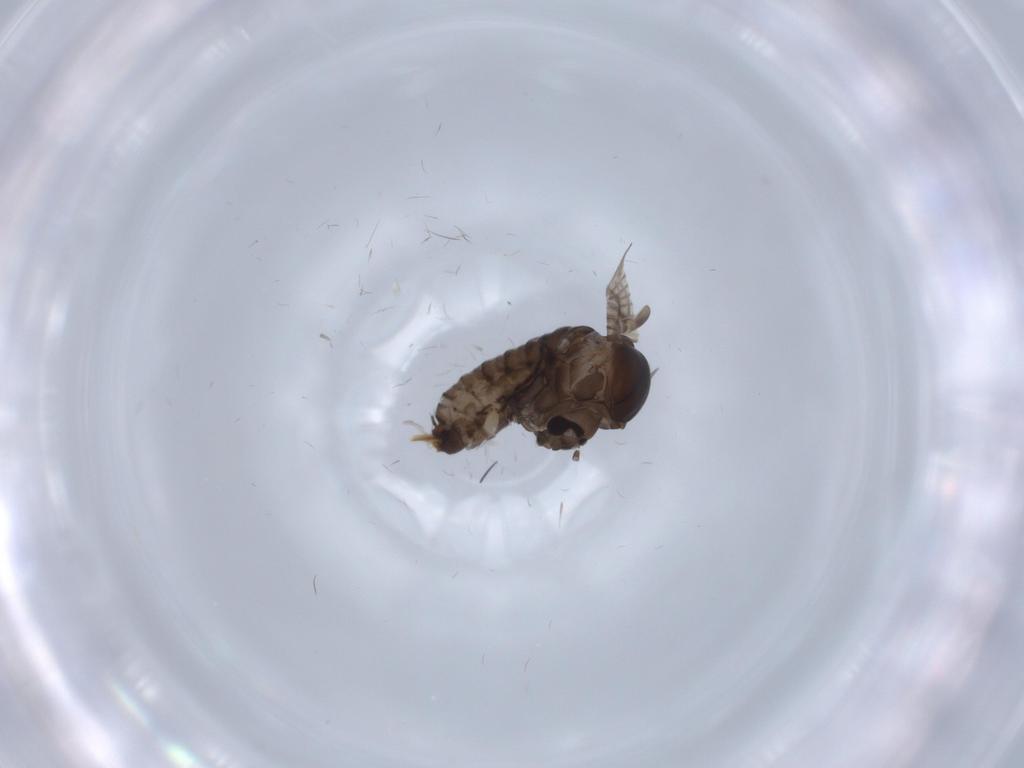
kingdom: Animalia
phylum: Arthropoda
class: Insecta
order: Diptera
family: Psychodidae
